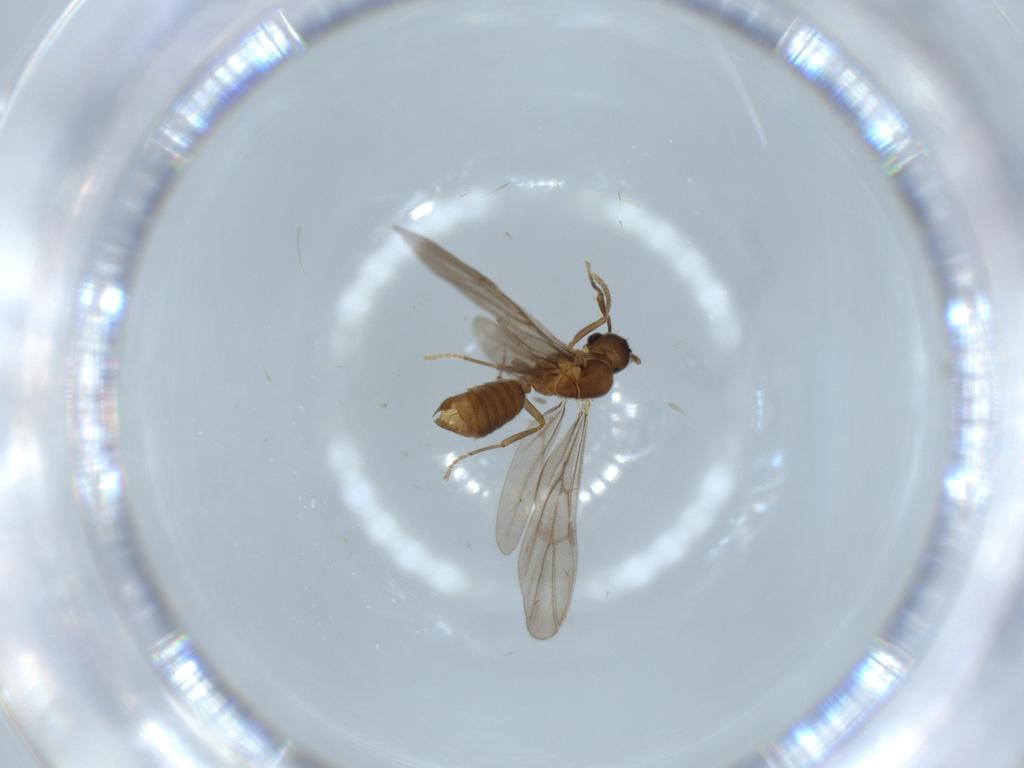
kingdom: Animalia
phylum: Arthropoda
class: Insecta
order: Hymenoptera
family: Formicidae
